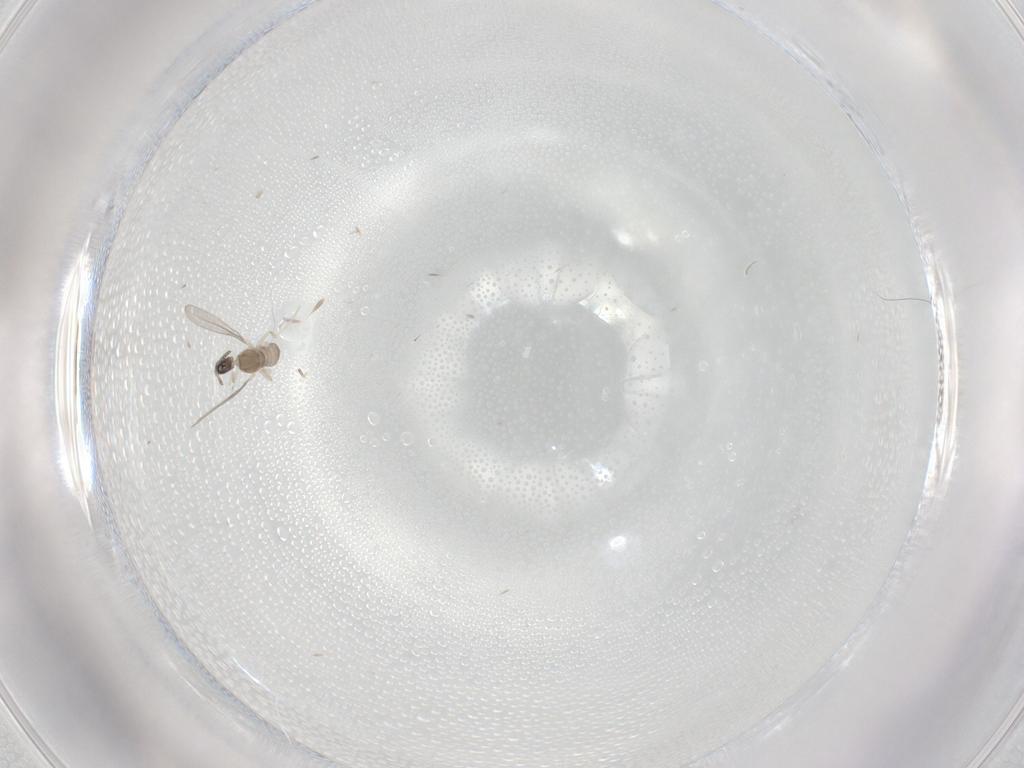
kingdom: Animalia
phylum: Arthropoda
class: Insecta
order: Diptera
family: Cecidomyiidae
